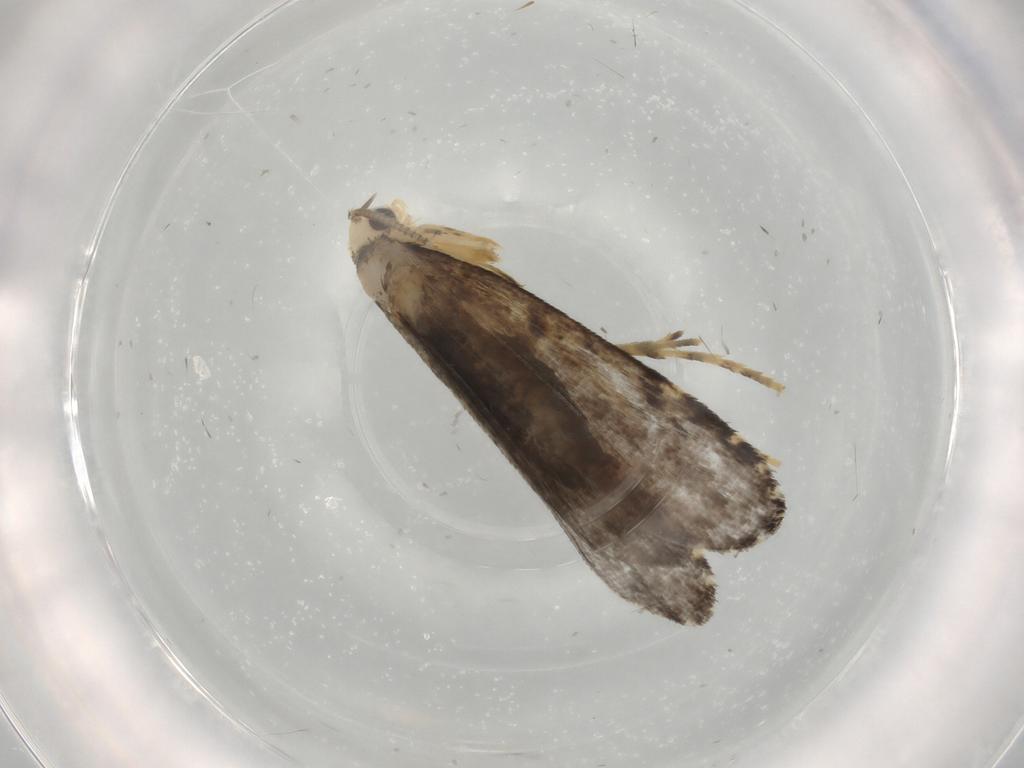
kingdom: Animalia
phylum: Arthropoda
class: Insecta
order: Lepidoptera
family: Tineidae
